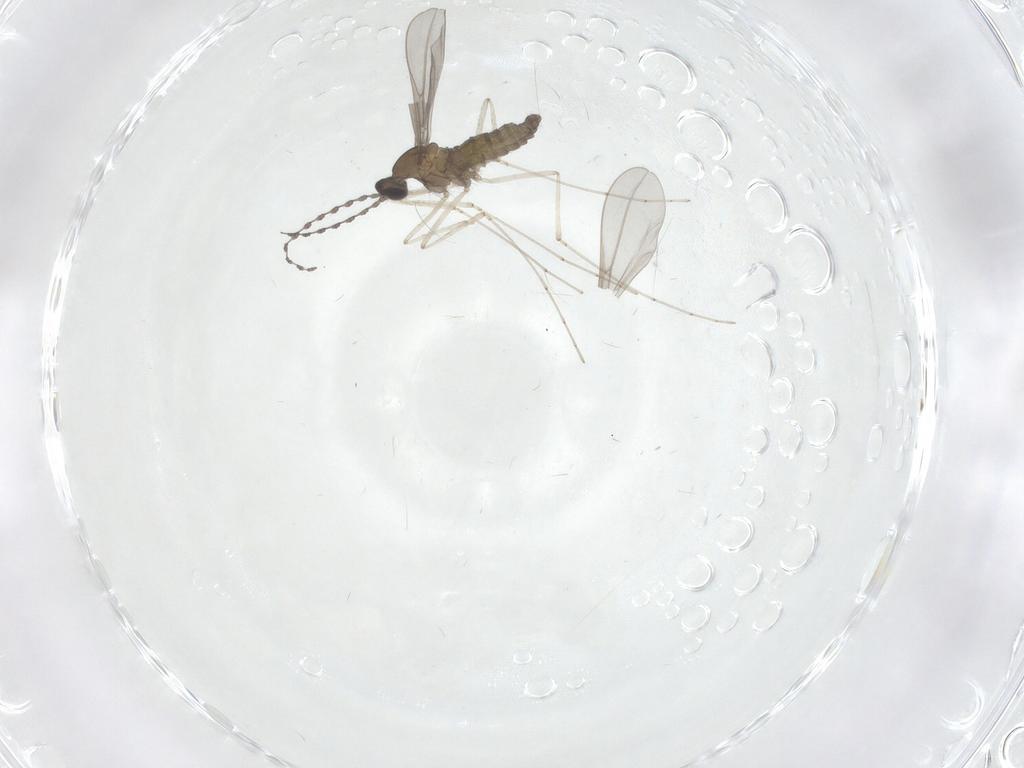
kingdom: Animalia
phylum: Arthropoda
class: Insecta
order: Diptera
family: Cecidomyiidae
